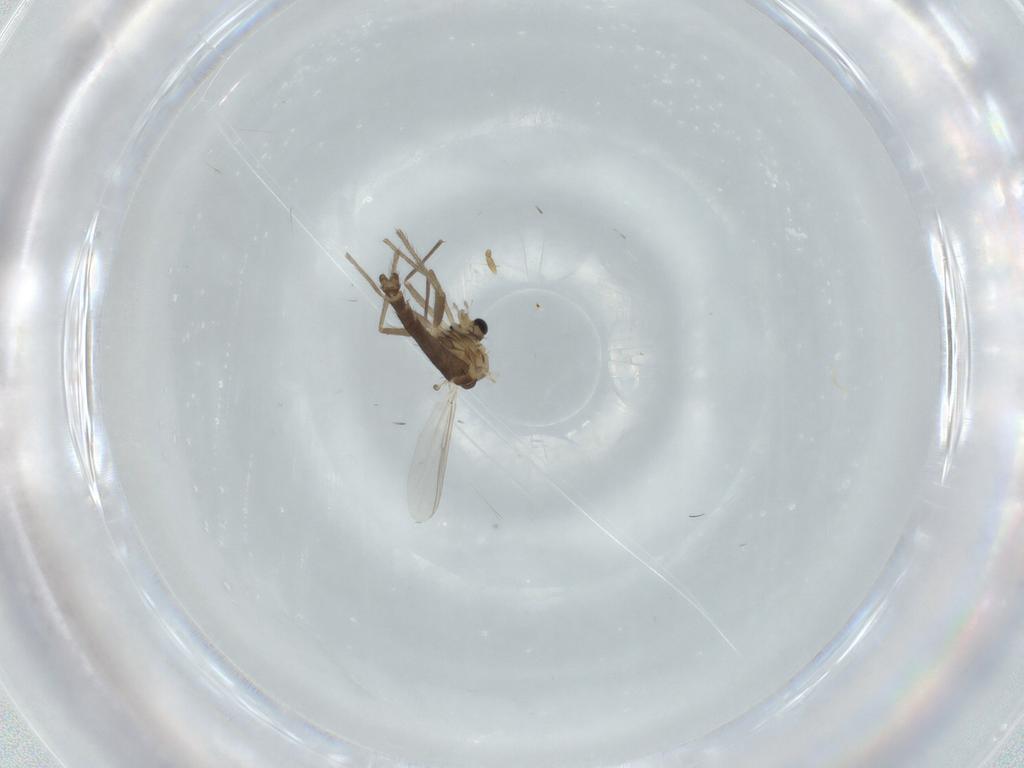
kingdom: Animalia
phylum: Arthropoda
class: Insecta
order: Diptera
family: Chironomidae
